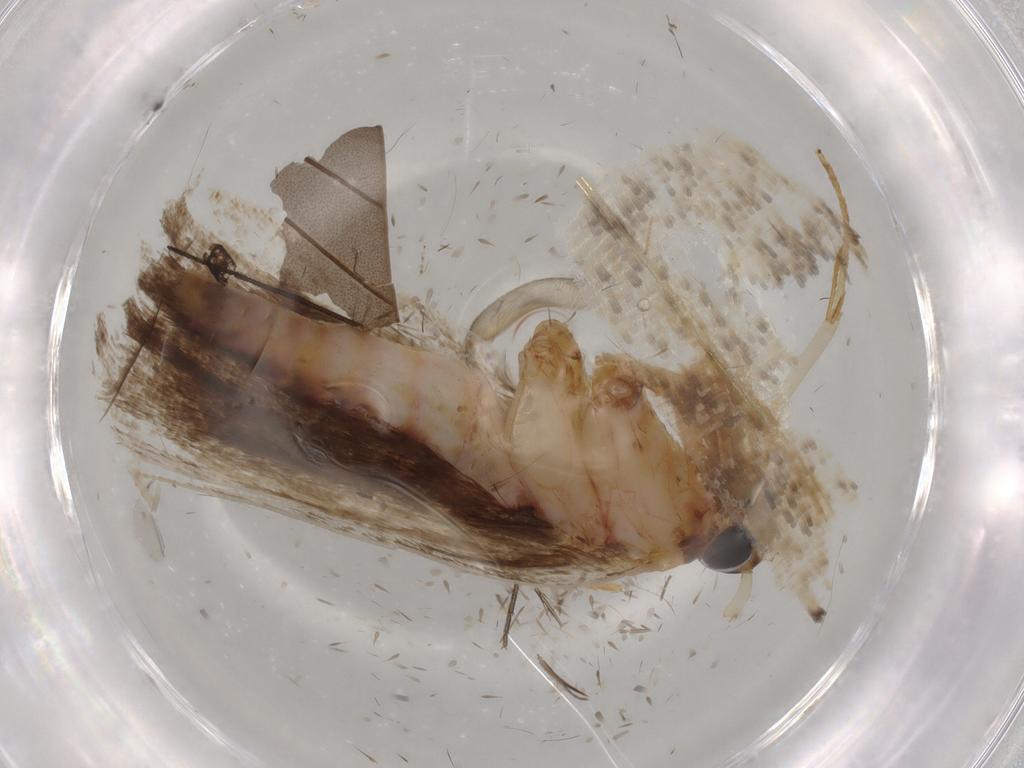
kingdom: Animalia
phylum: Arthropoda
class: Insecta
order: Lepidoptera
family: Autostichidae
